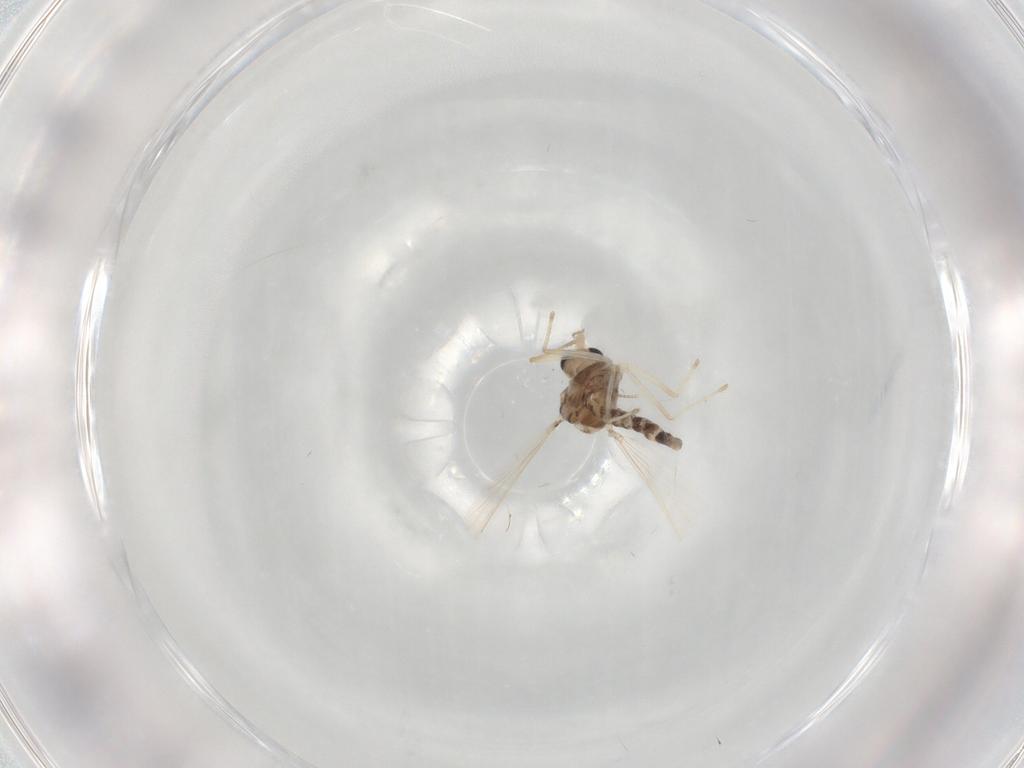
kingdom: Animalia
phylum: Arthropoda
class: Insecta
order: Diptera
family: Chironomidae
